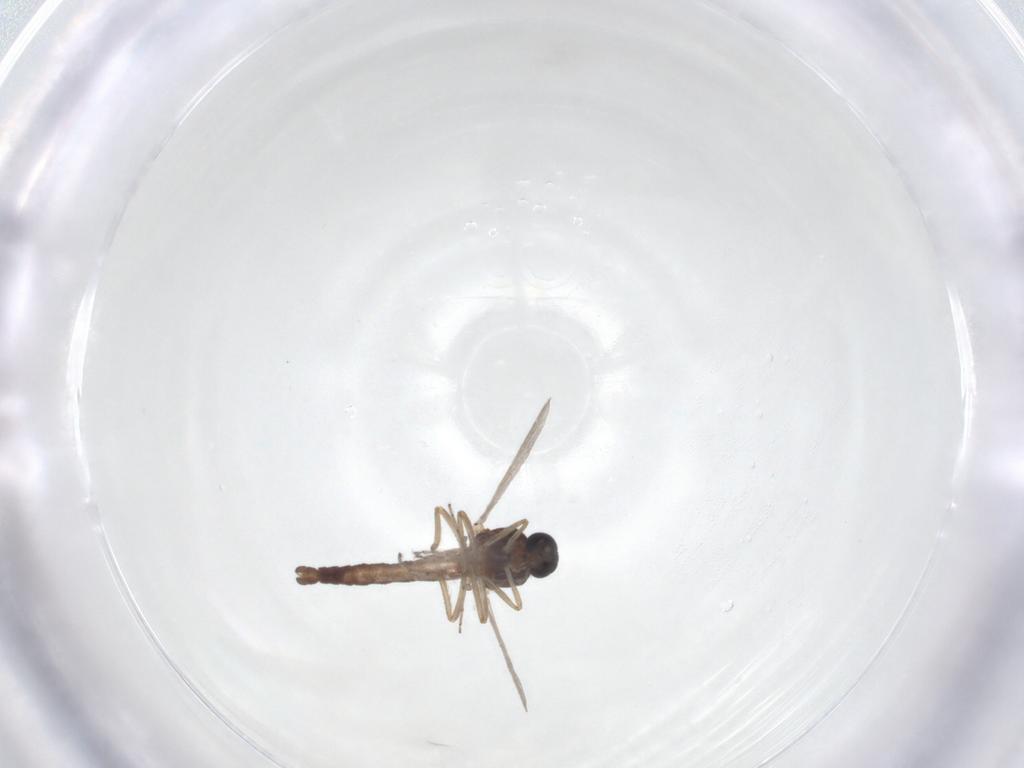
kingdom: Animalia
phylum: Arthropoda
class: Insecta
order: Diptera
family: Ceratopogonidae
